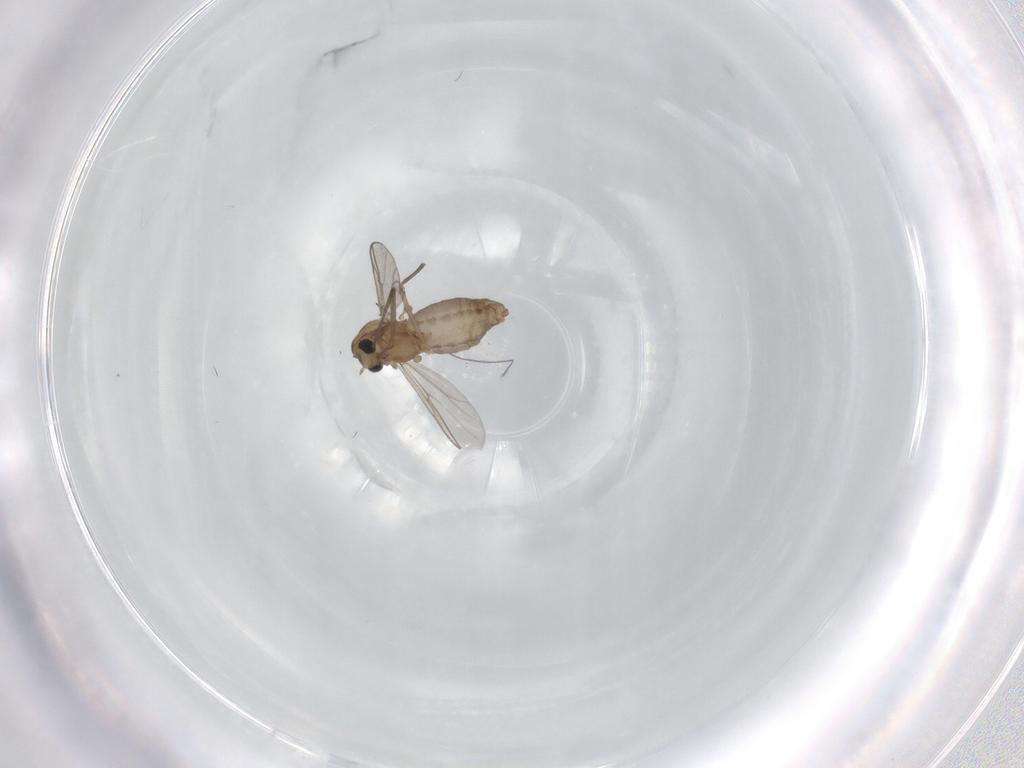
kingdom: Animalia
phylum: Arthropoda
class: Insecta
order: Diptera
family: Chironomidae
